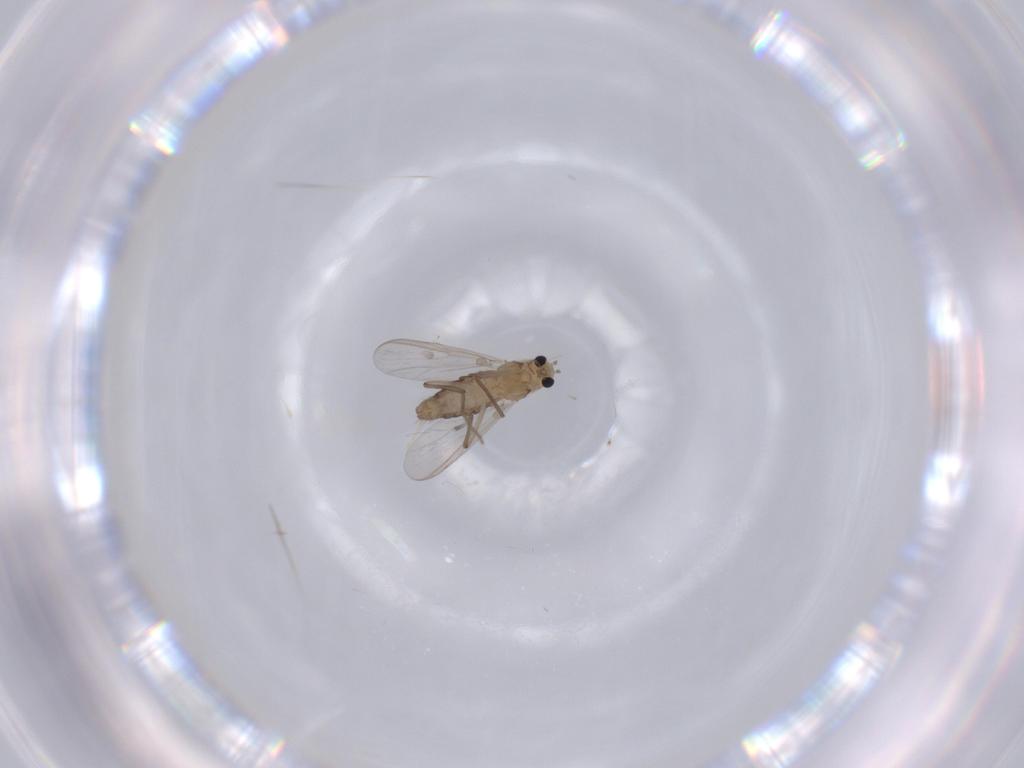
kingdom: Animalia
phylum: Arthropoda
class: Insecta
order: Diptera
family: Chironomidae
